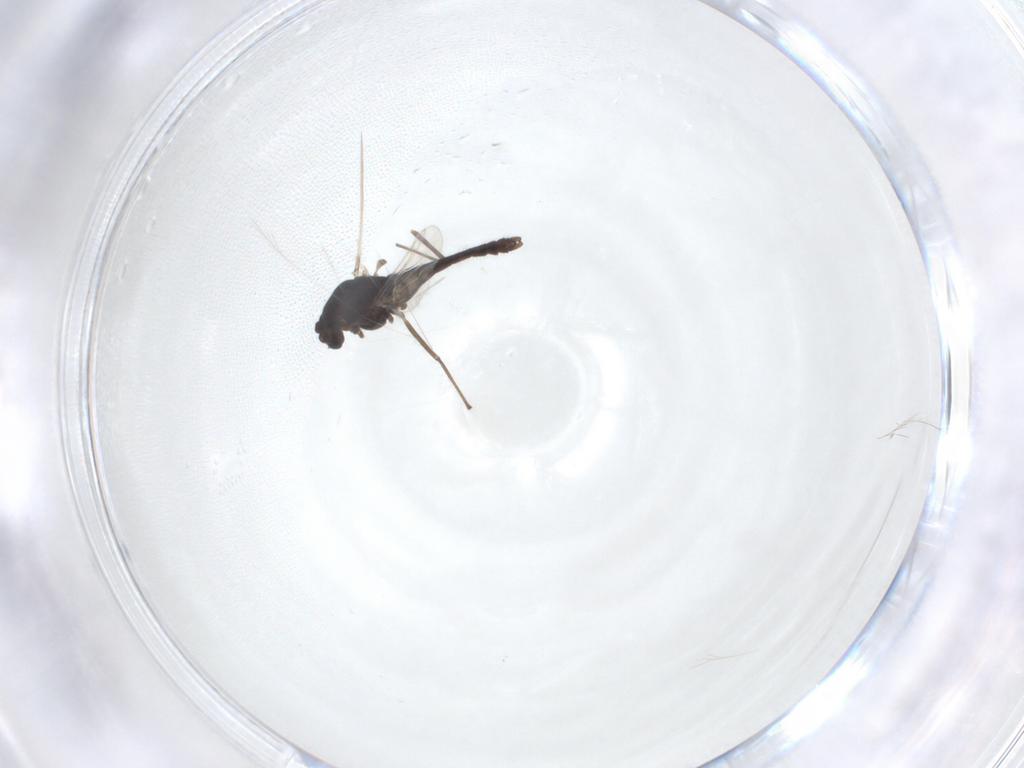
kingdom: Animalia
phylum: Arthropoda
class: Insecta
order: Diptera
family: Chironomidae
